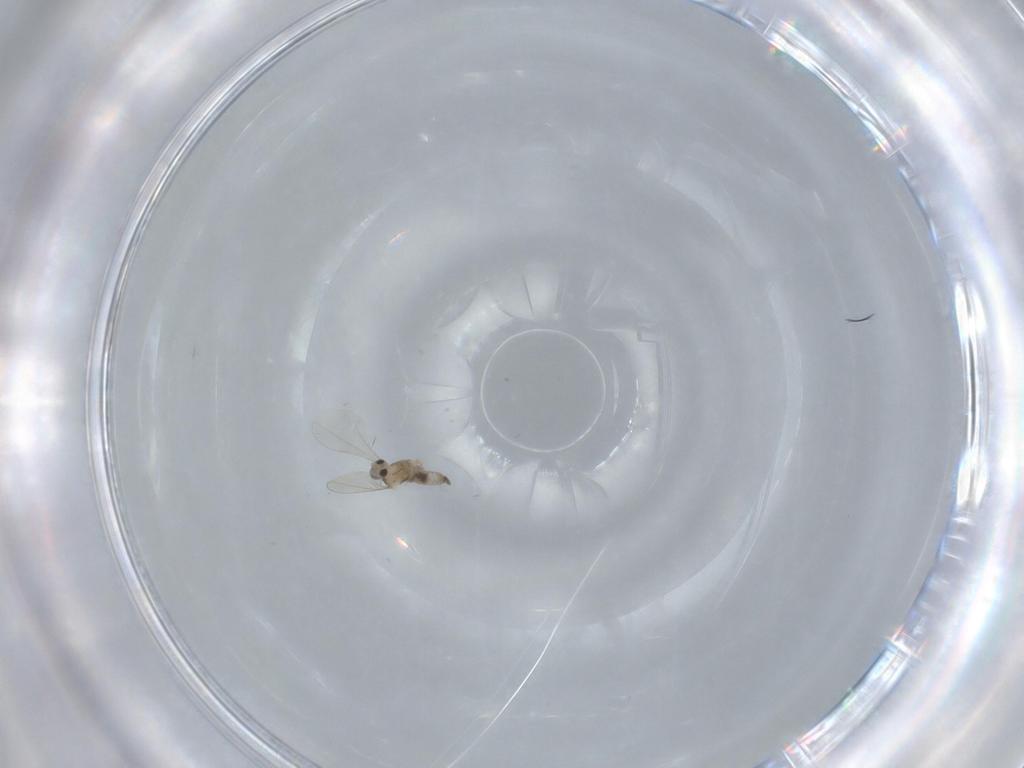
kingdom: Animalia
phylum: Arthropoda
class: Insecta
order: Diptera
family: Cecidomyiidae
